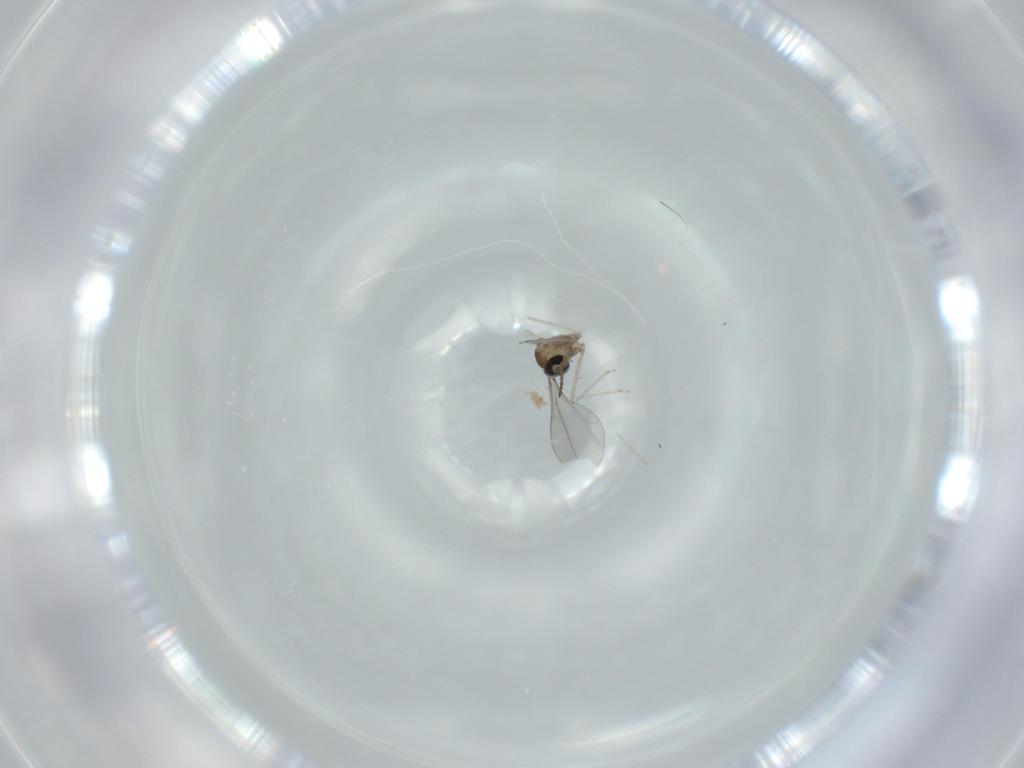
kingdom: Animalia
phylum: Arthropoda
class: Insecta
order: Diptera
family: Cecidomyiidae
